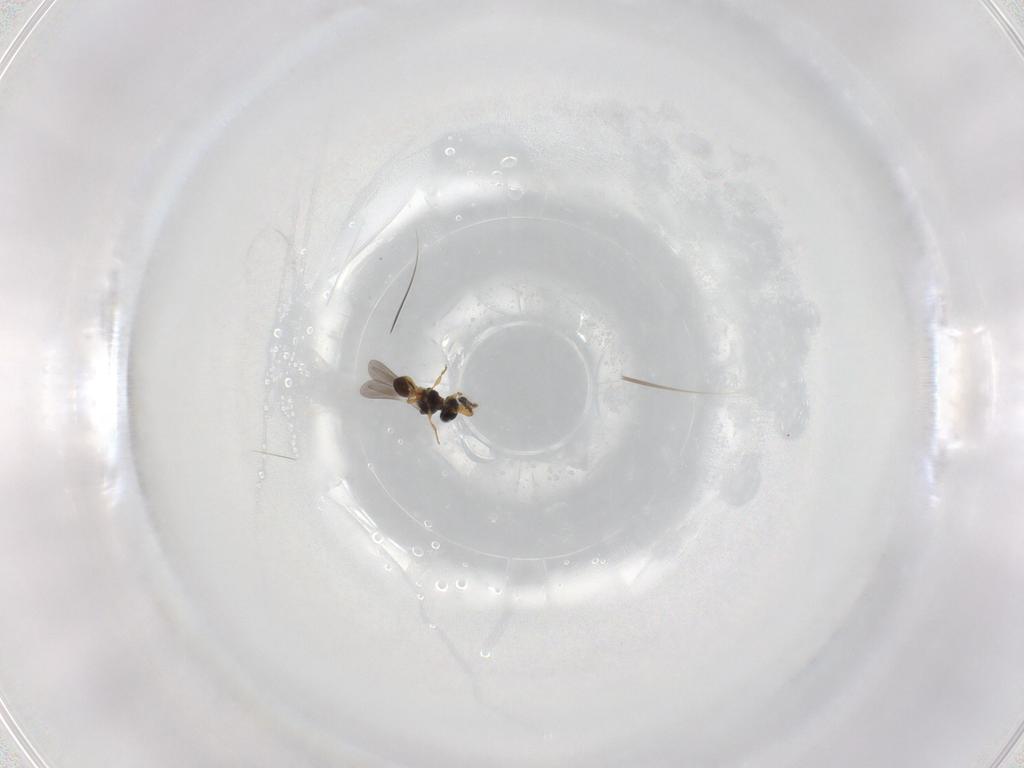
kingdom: Animalia
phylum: Arthropoda
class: Insecta
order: Hymenoptera
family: Platygastridae
